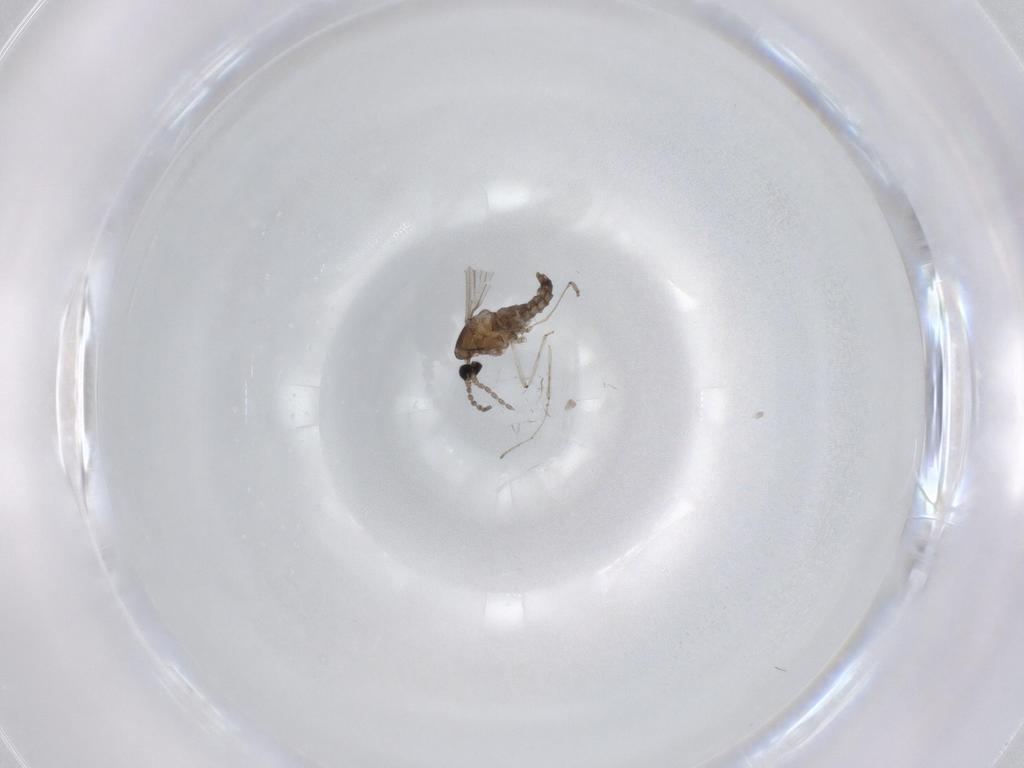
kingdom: Animalia
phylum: Arthropoda
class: Insecta
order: Diptera
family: Cecidomyiidae
